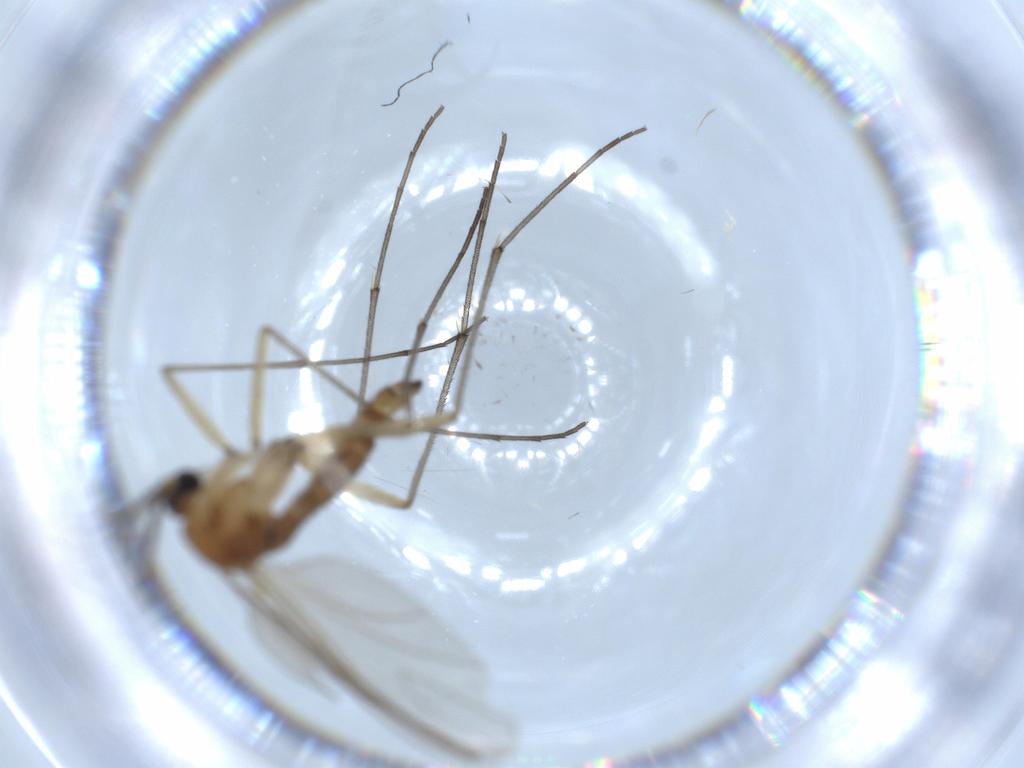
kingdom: Animalia
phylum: Arthropoda
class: Insecta
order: Diptera
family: Sciaridae
